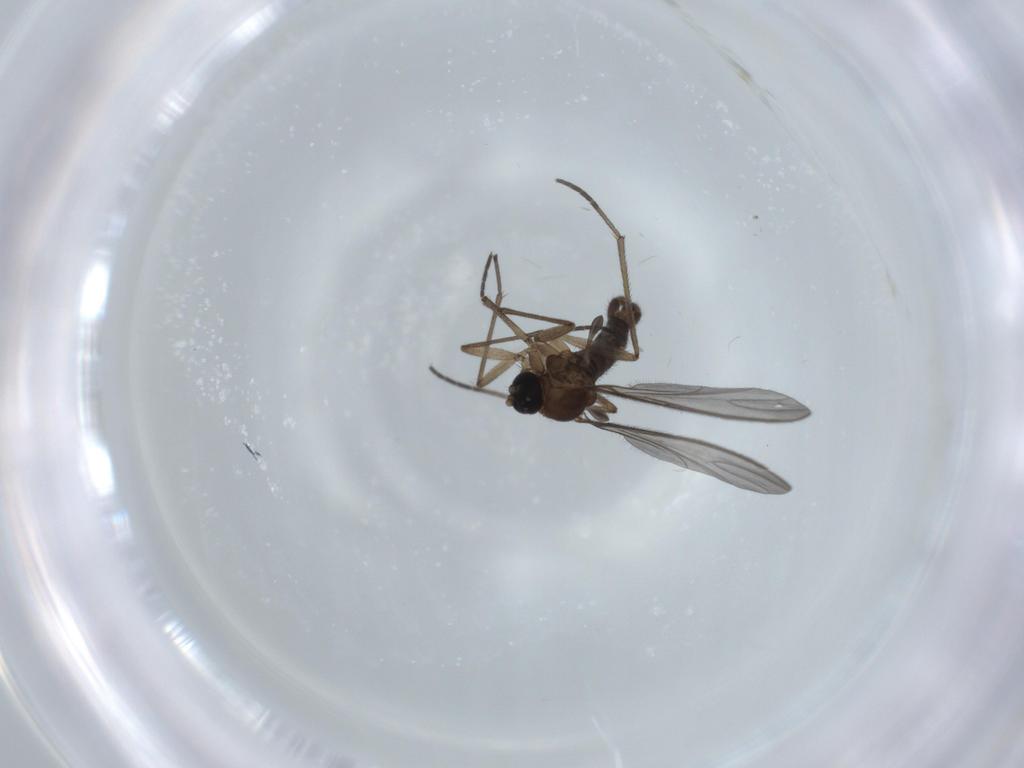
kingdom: Animalia
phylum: Arthropoda
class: Insecta
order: Diptera
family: Sciaridae
